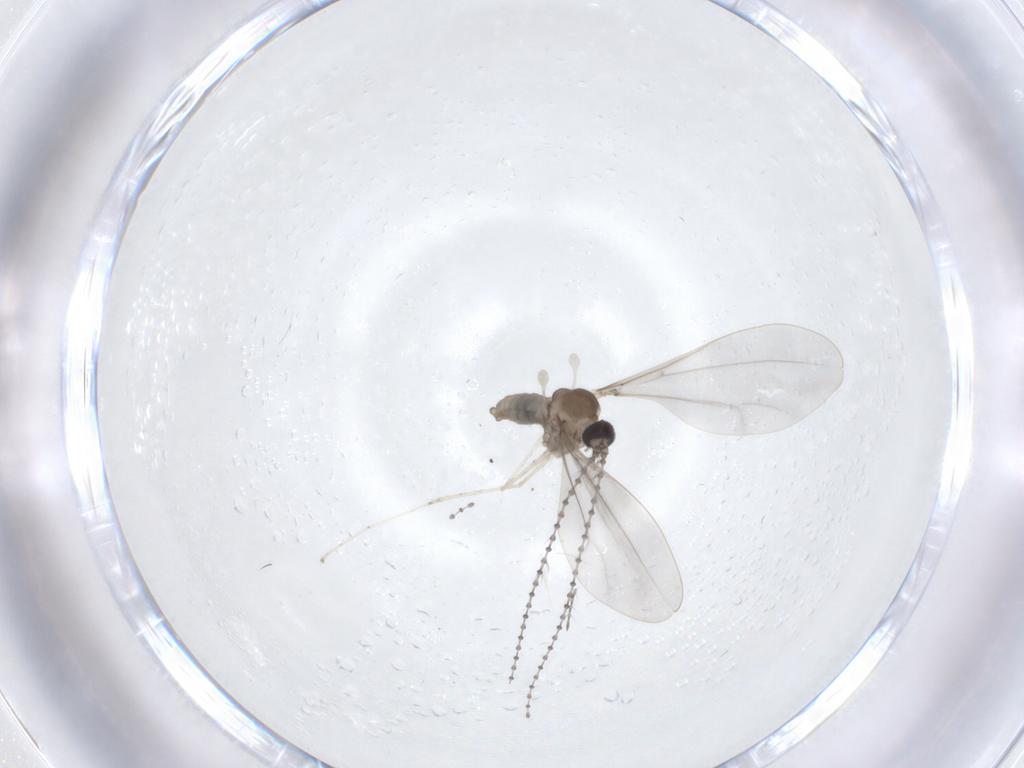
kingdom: Animalia
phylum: Arthropoda
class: Insecta
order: Diptera
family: Cecidomyiidae
